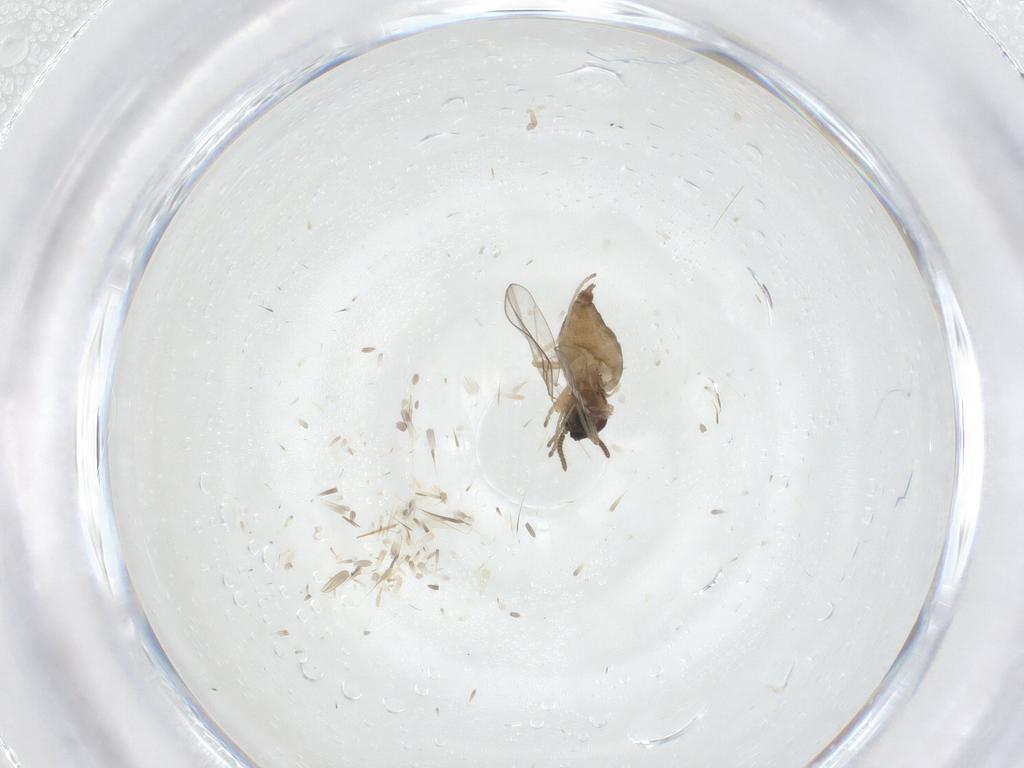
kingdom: Animalia
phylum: Arthropoda
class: Insecta
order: Diptera
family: Cecidomyiidae
